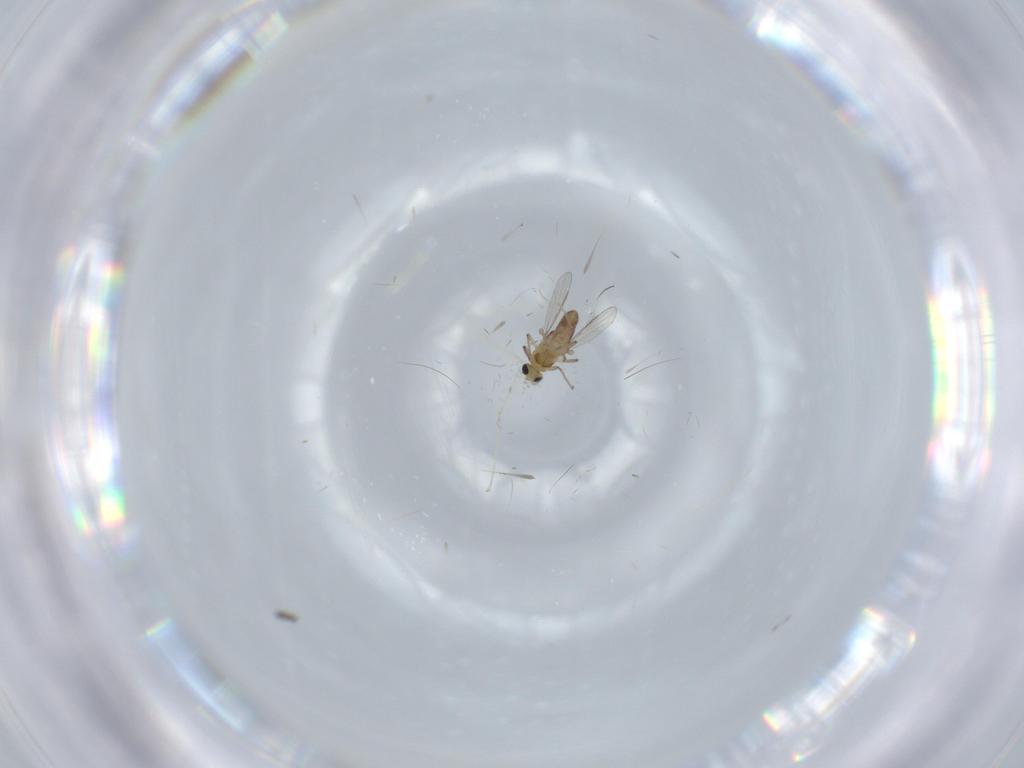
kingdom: Animalia
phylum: Arthropoda
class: Insecta
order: Diptera
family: Chironomidae
